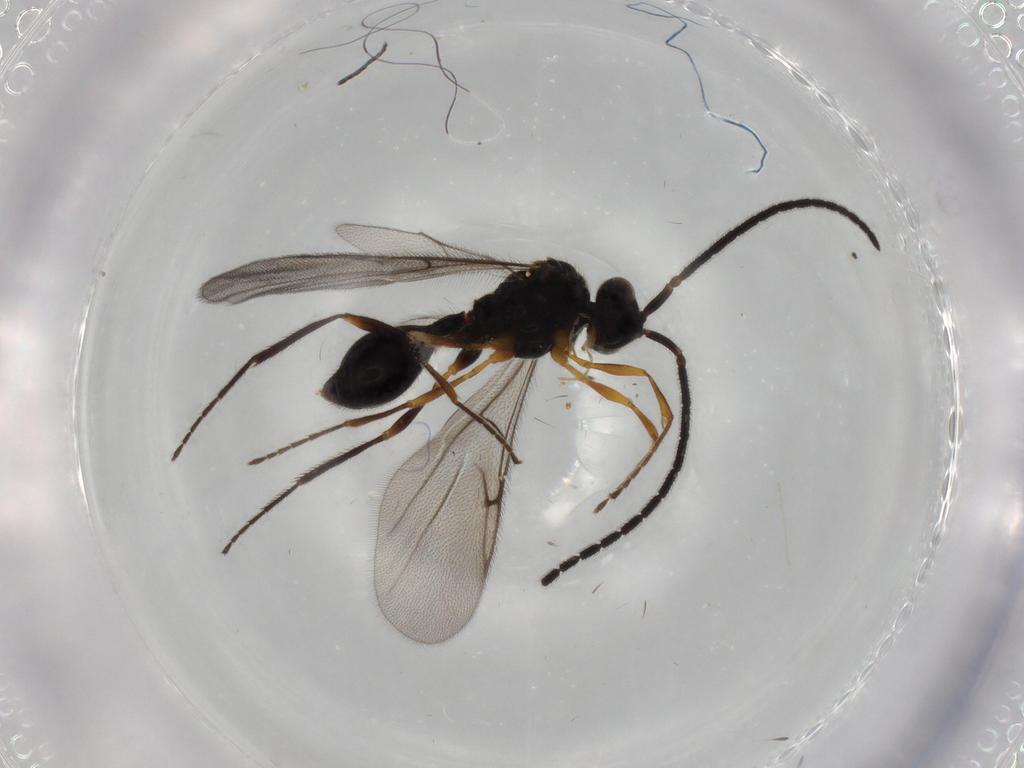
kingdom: Animalia
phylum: Arthropoda
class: Insecta
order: Hymenoptera
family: Diapriidae
